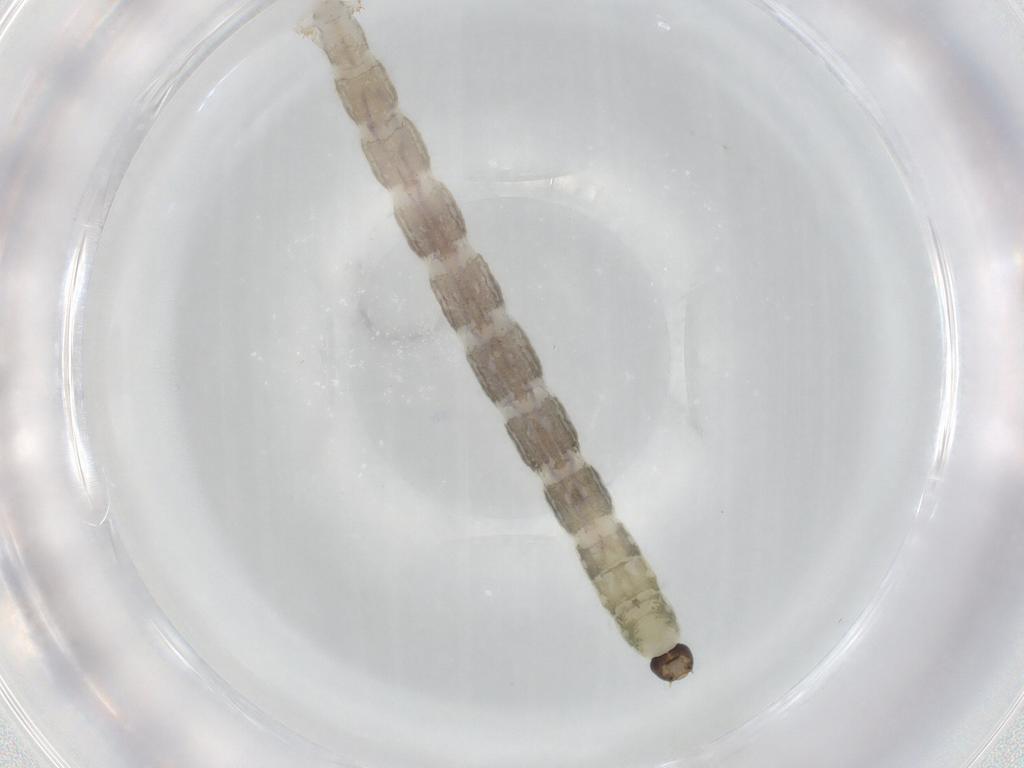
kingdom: Animalia
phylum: Arthropoda
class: Insecta
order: Diptera
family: Chironomidae
